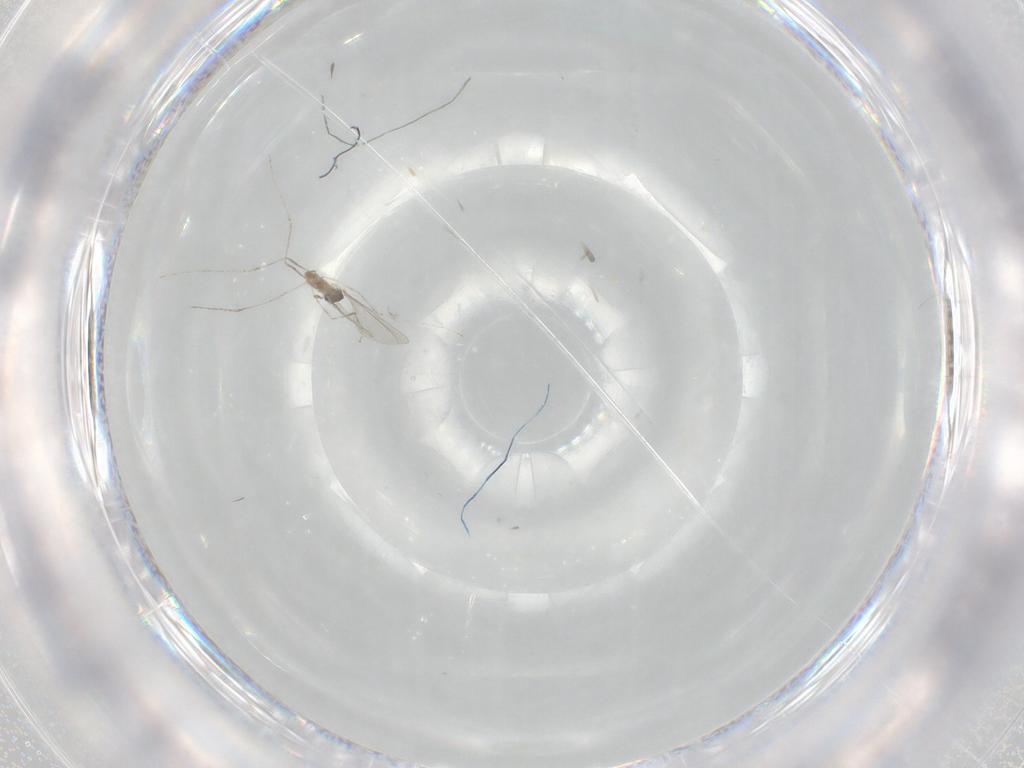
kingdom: Animalia
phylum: Arthropoda
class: Insecta
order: Diptera
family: Cecidomyiidae
